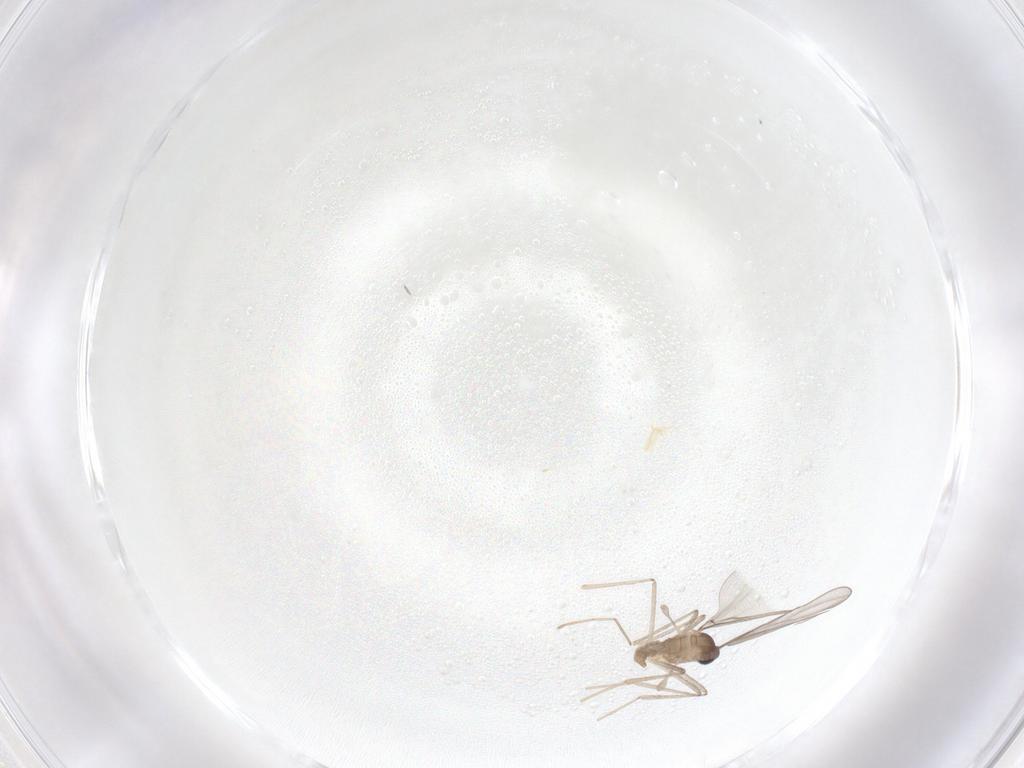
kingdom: Animalia
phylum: Arthropoda
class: Insecta
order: Diptera
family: Cecidomyiidae
